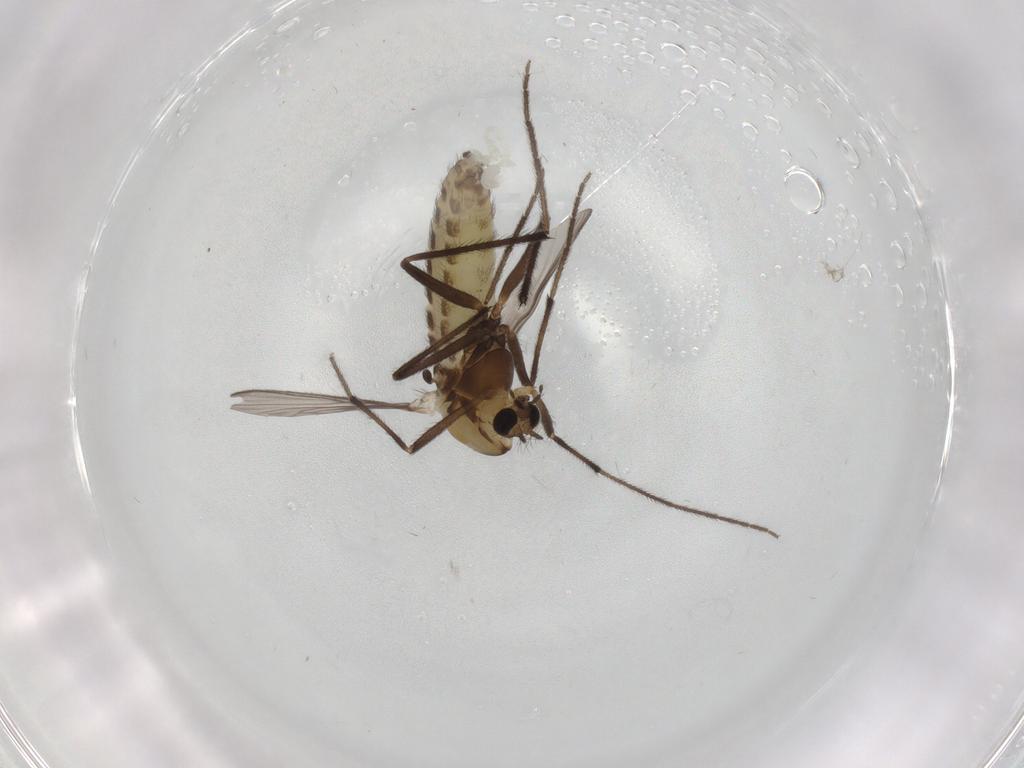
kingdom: Animalia
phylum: Arthropoda
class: Insecta
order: Diptera
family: Chironomidae
